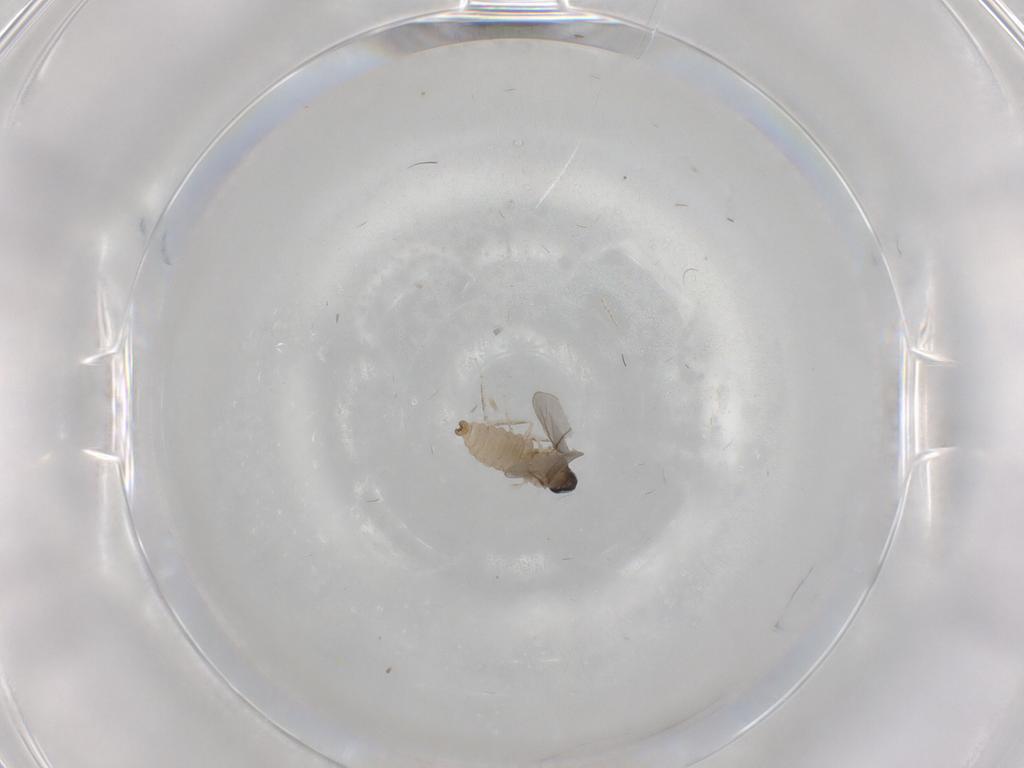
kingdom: Animalia
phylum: Arthropoda
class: Insecta
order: Diptera
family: Cecidomyiidae
